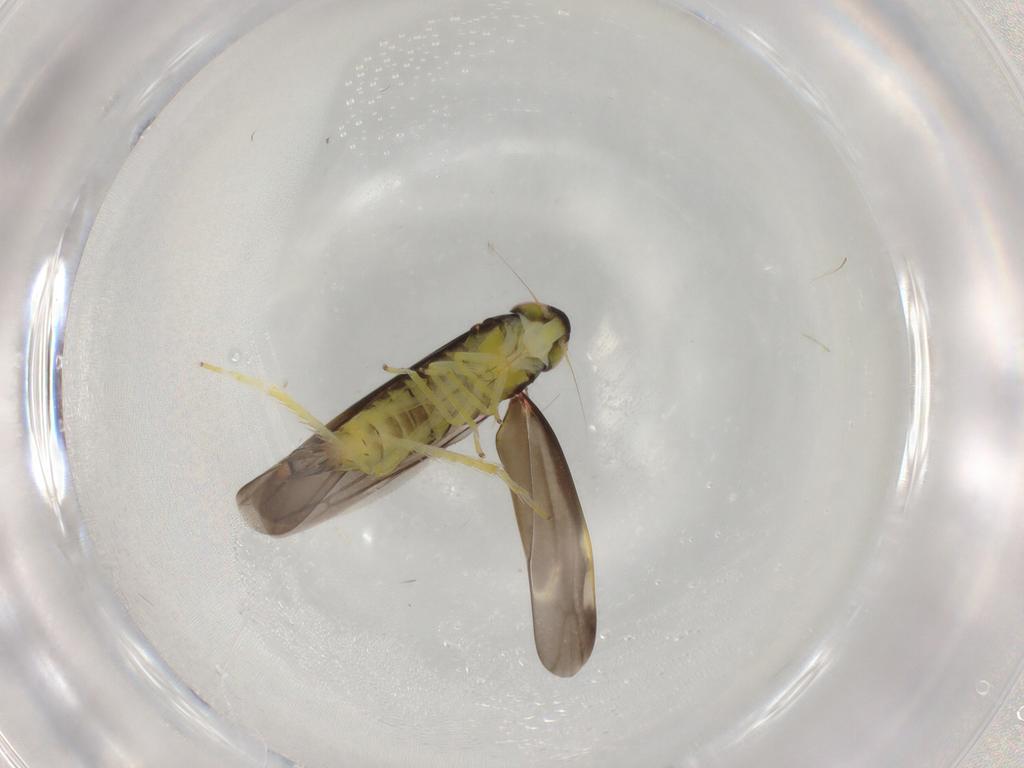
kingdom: Animalia
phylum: Arthropoda
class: Insecta
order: Hemiptera
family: Cicadellidae
